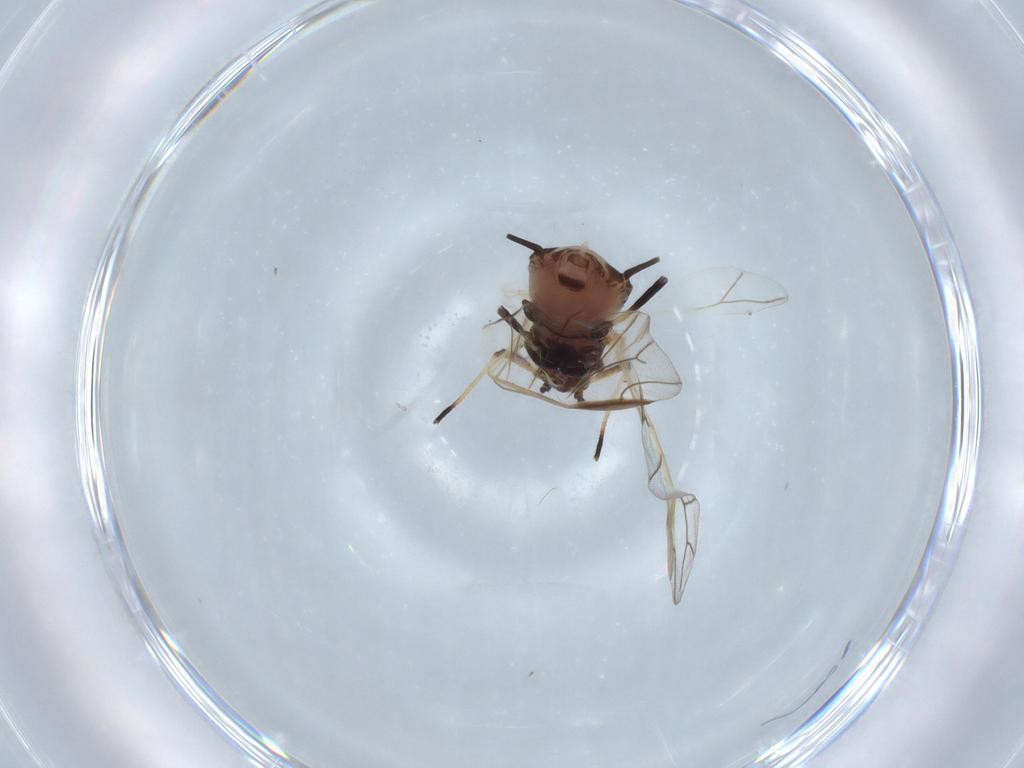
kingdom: Animalia
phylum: Arthropoda
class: Insecta
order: Hemiptera
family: Aphididae
